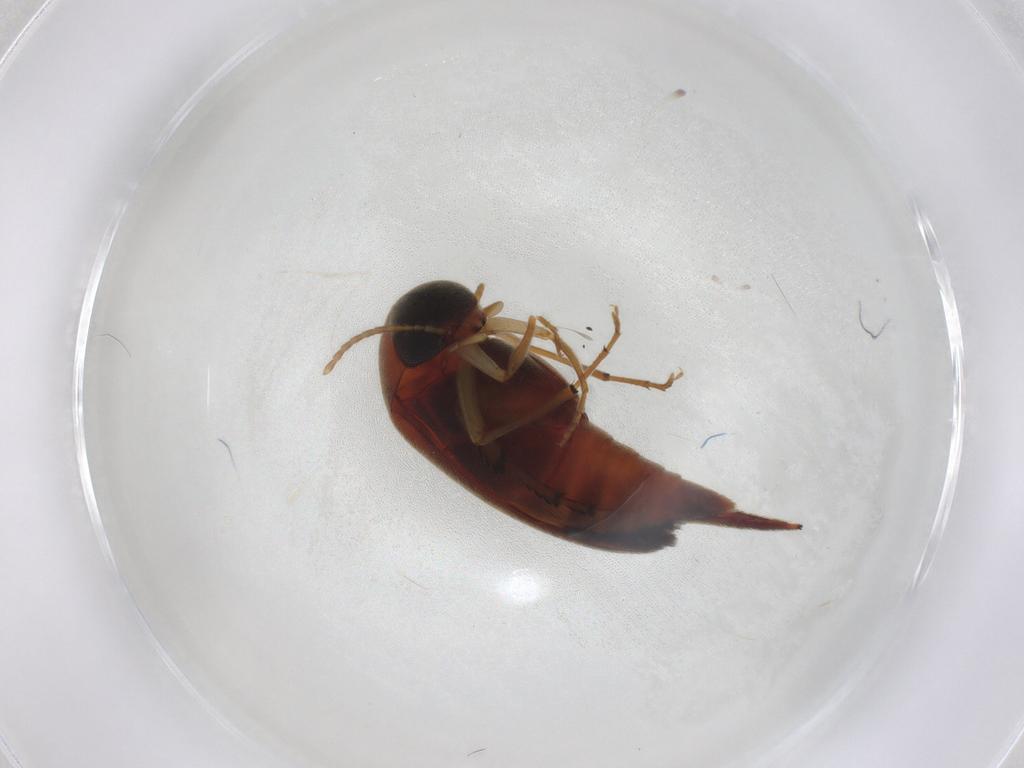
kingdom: Animalia
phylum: Arthropoda
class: Insecta
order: Coleoptera
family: Mordellidae
